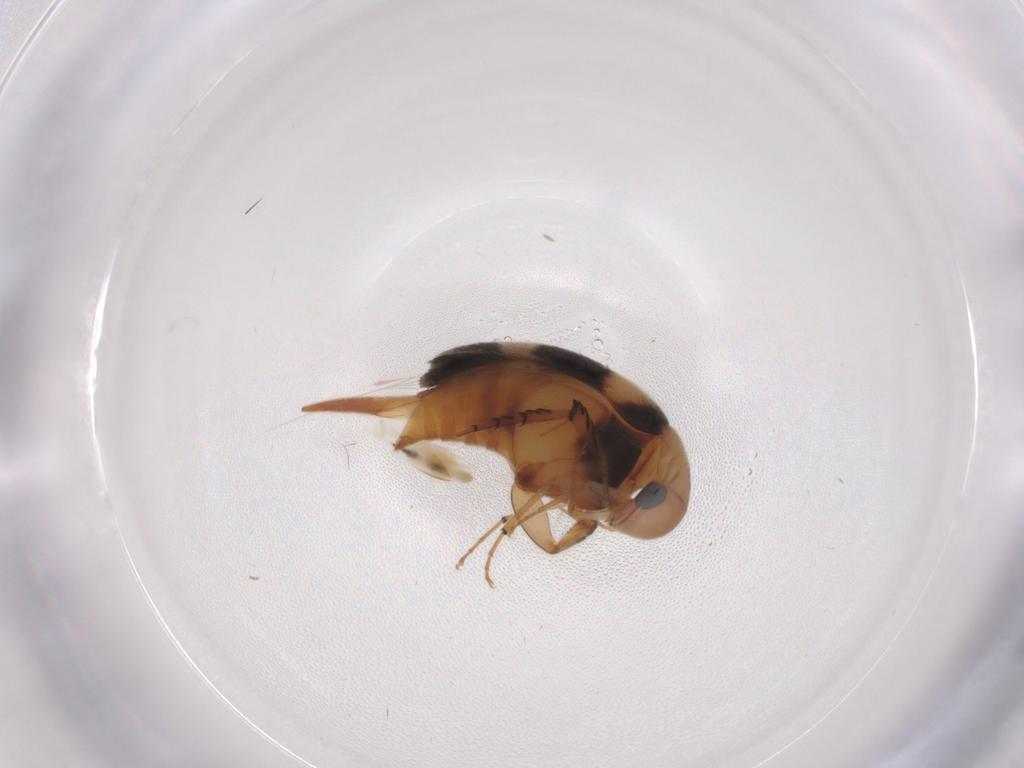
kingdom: Animalia
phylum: Arthropoda
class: Insecta
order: Coleoptera
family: Mordellidae
